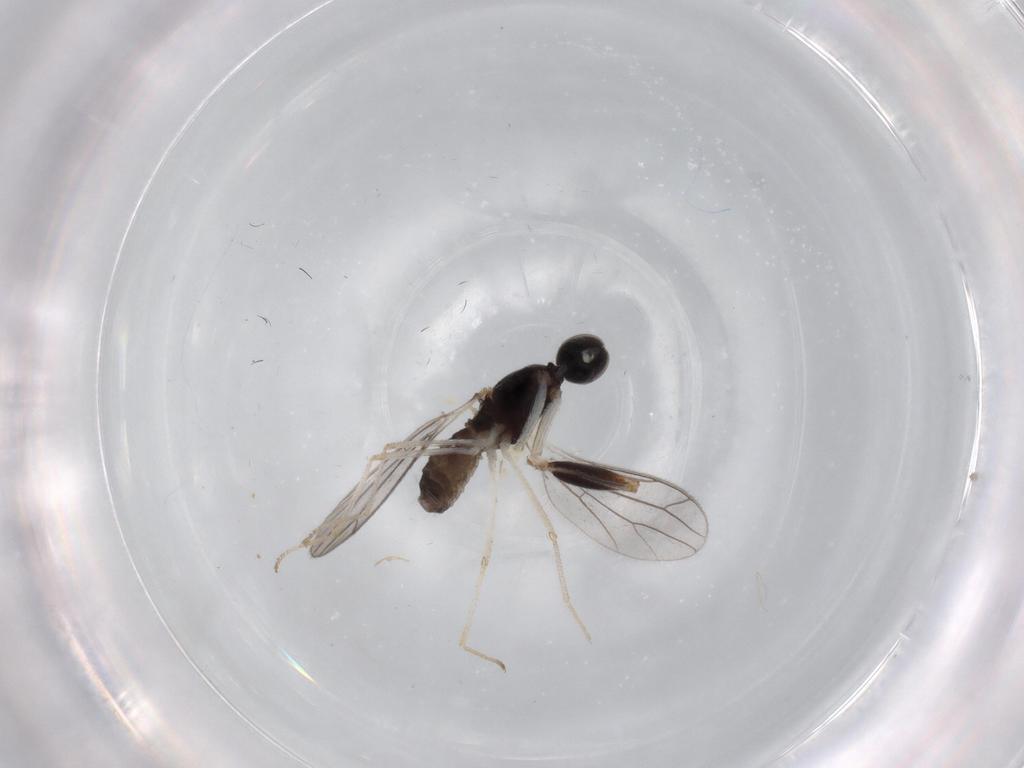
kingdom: Animalia
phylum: Arthropoda
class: Insecta
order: Diptera
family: Empididae
